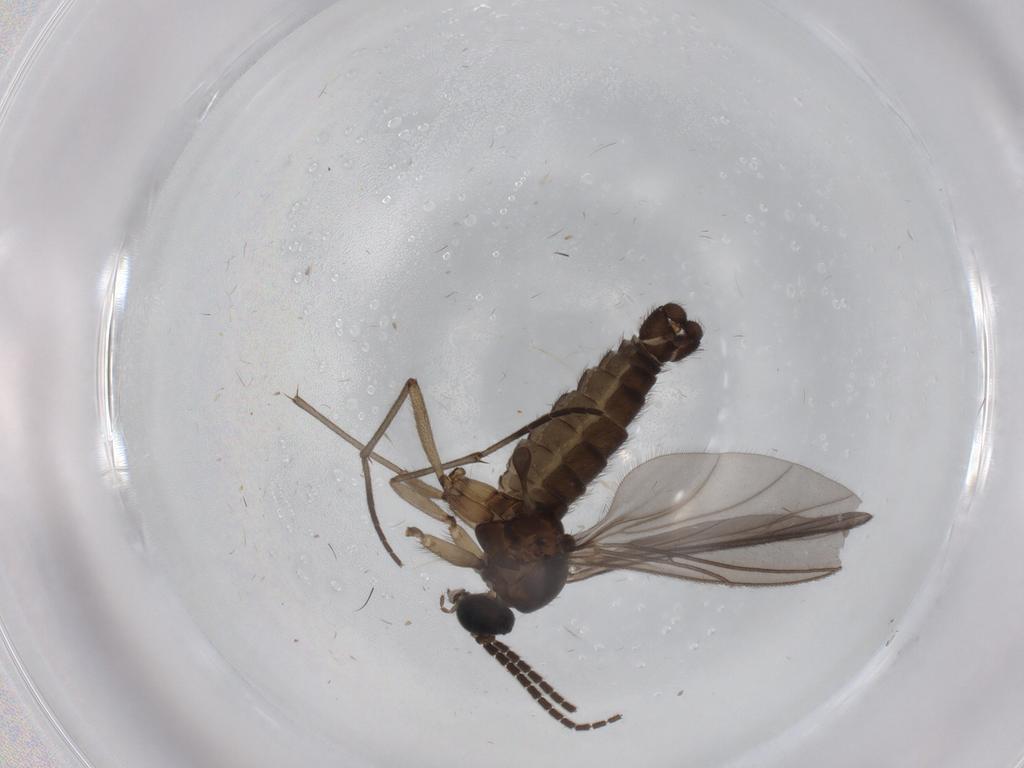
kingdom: Animalia
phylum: Arthropoda
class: Insecta
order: Diptera
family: Sciaridae
